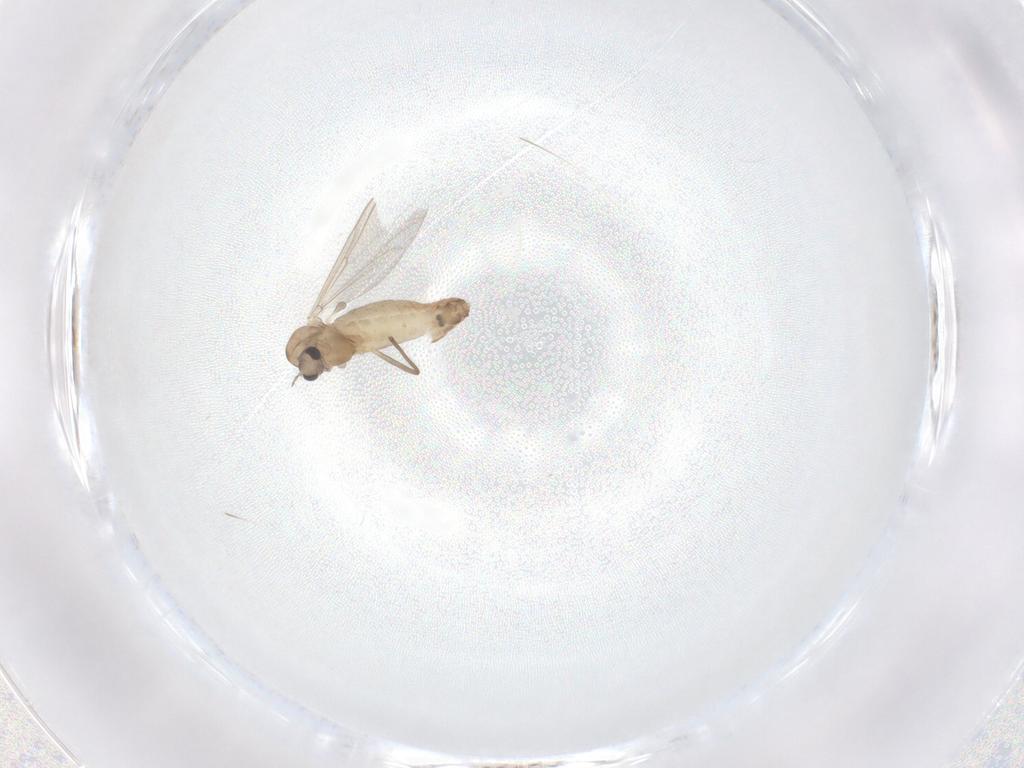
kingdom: Animalia
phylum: Arthropoda
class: Insecta
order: Diptera
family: Chironomidae
